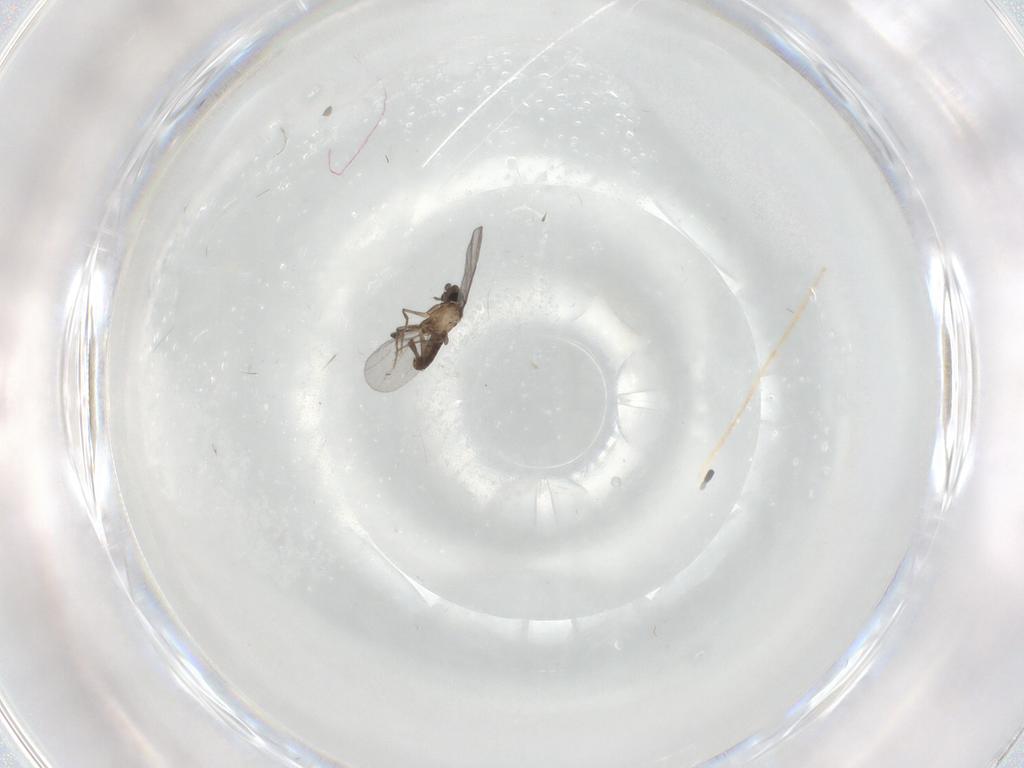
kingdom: Animalia
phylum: Arthropoda
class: Insecta
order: Diptera
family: Phoridae
